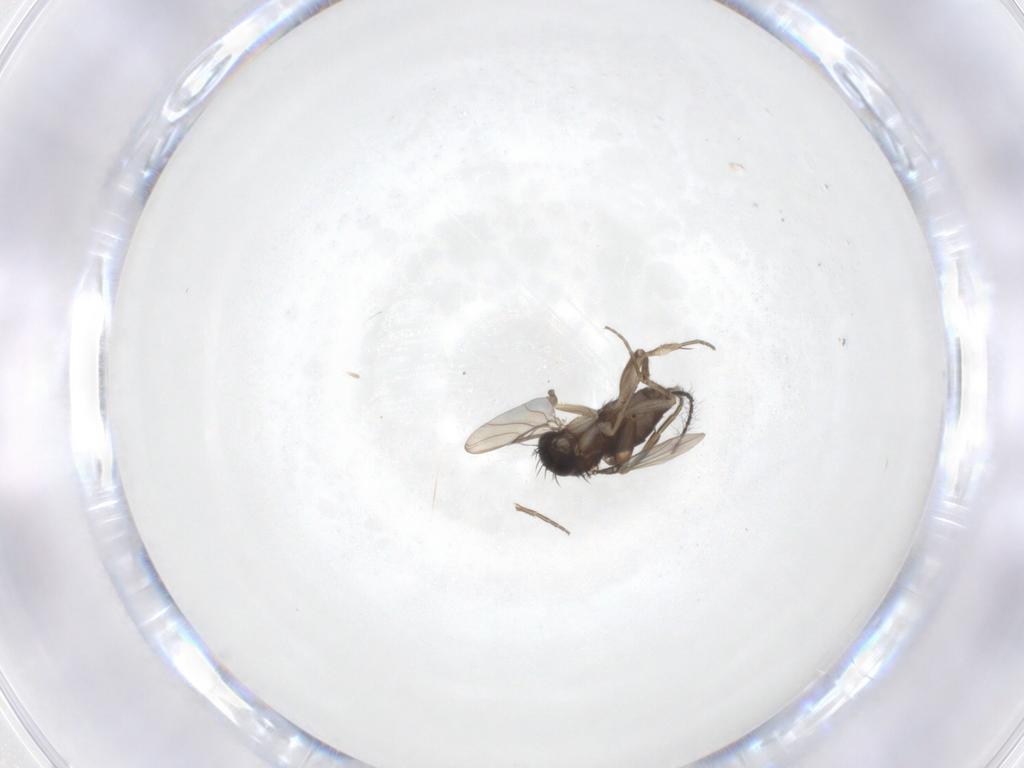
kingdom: Animalia
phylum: Arthropoda
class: Insecta
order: Diptera
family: Phoridae
